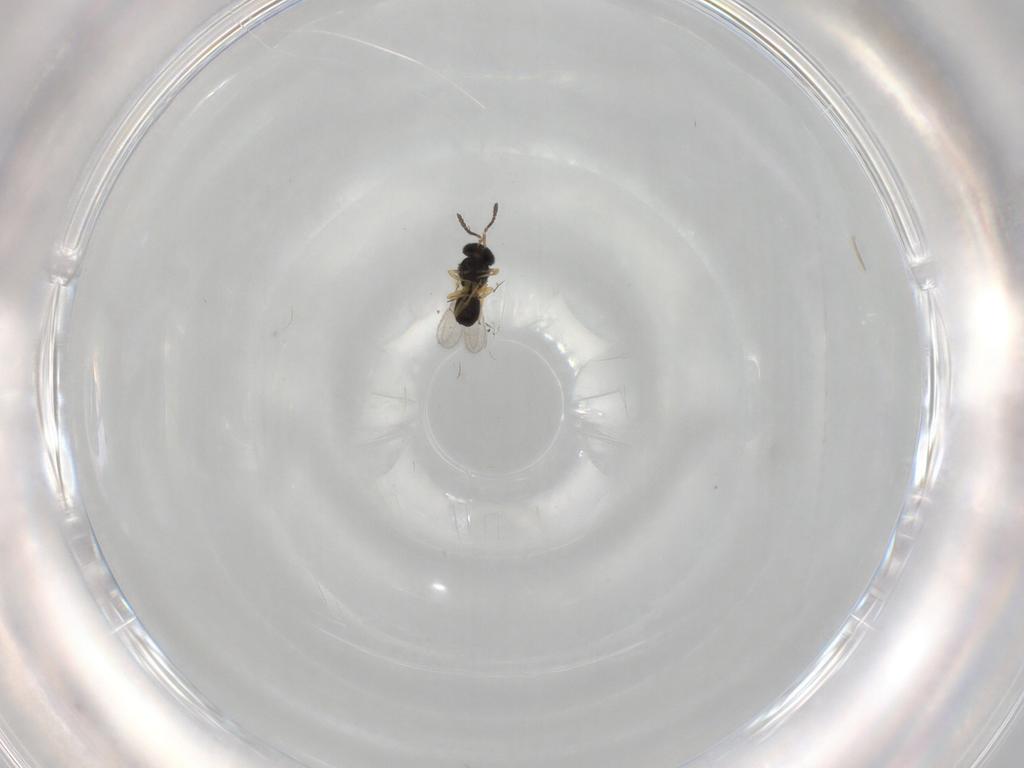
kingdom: Animalia
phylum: Arthropoda
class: Insecta
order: Hymenoptera
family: Scelionidae
